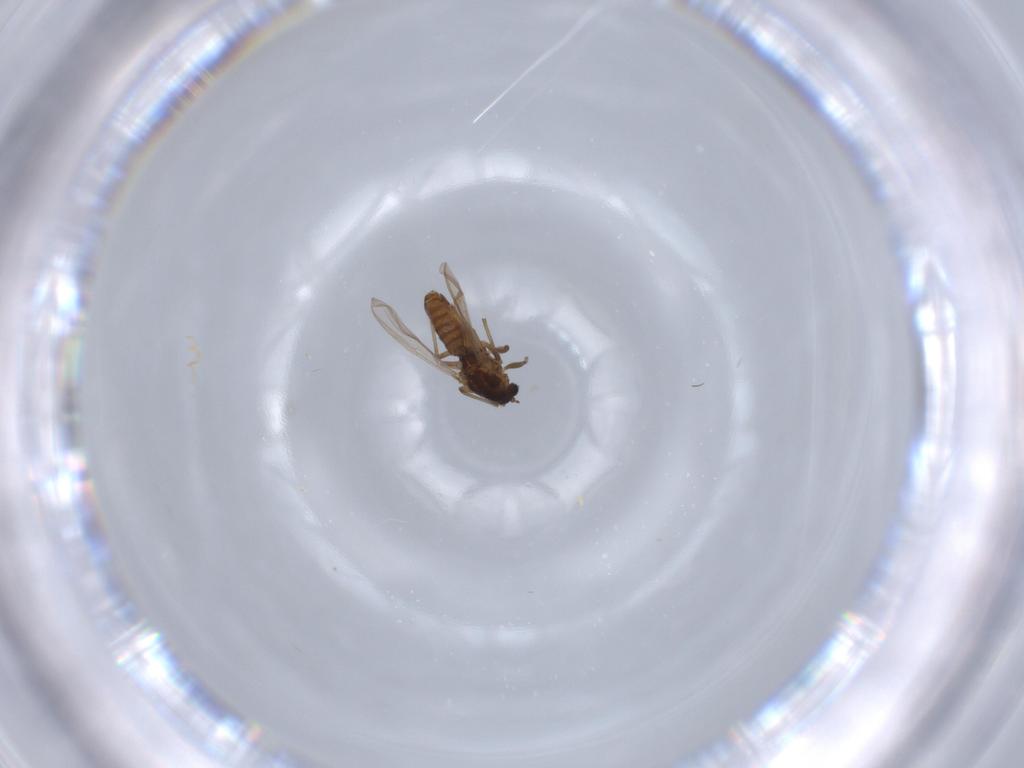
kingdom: Animalia
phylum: Arthropoda
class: Insecta
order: Diptera
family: Chironomidae
